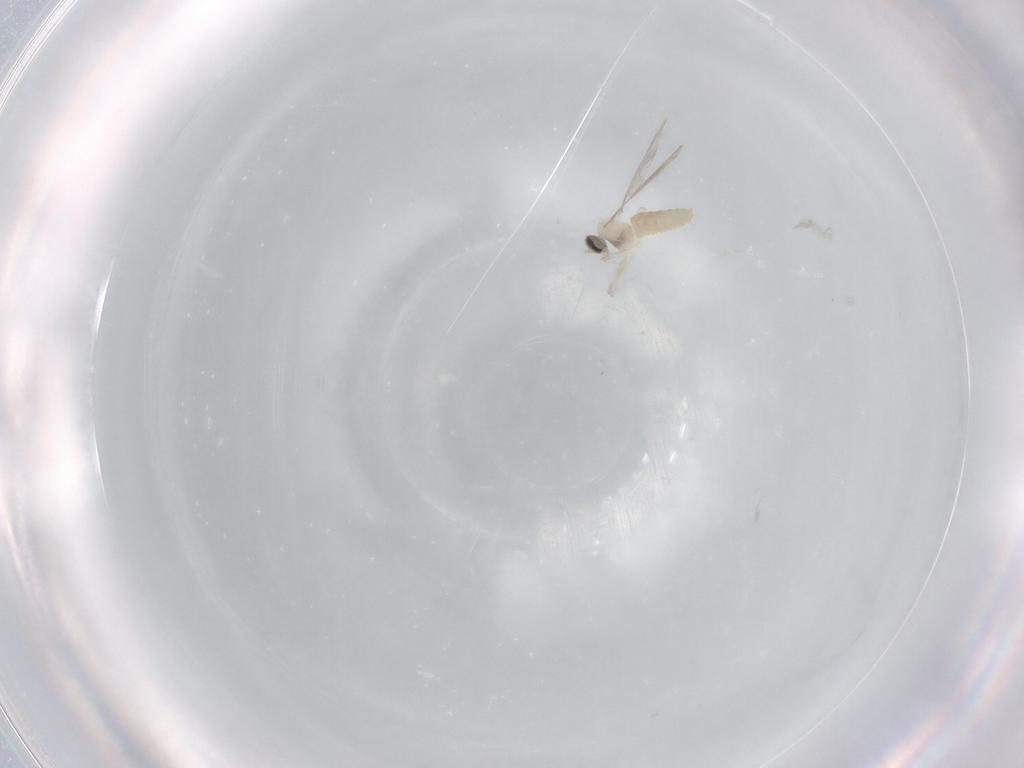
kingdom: Animalia
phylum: Arthropoda
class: Insecta
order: Diptera
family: Cecidomyiidae
